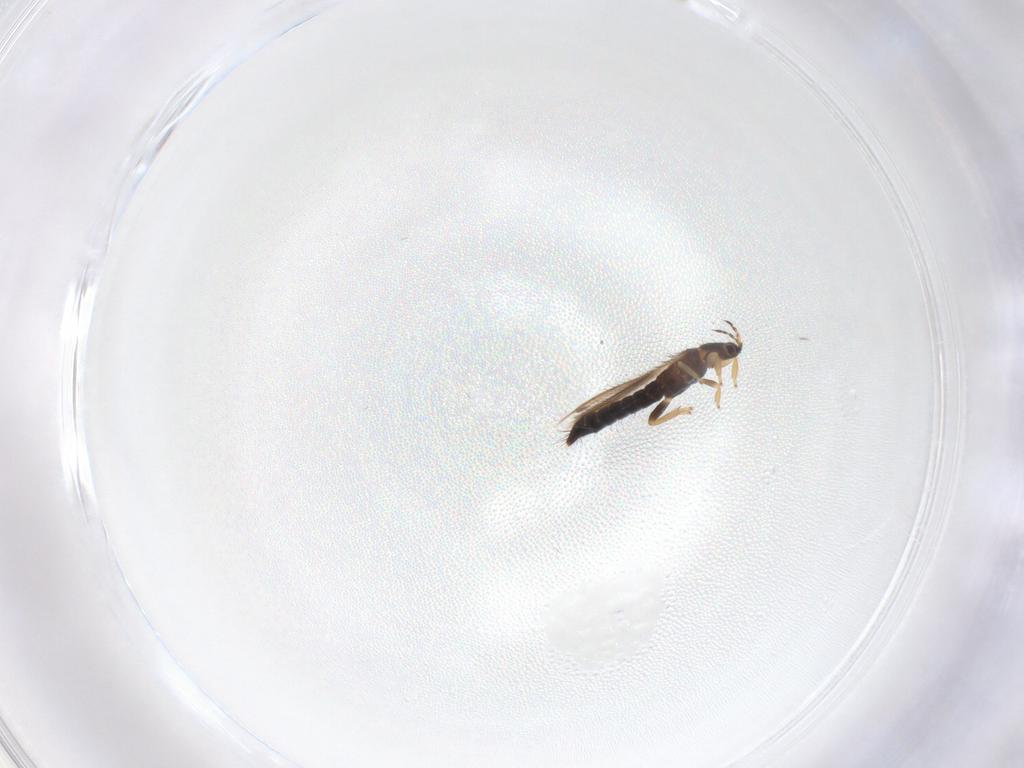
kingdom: Animalia
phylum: Arthropoda
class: Insecta
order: Thysanoptera
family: Thripidae
